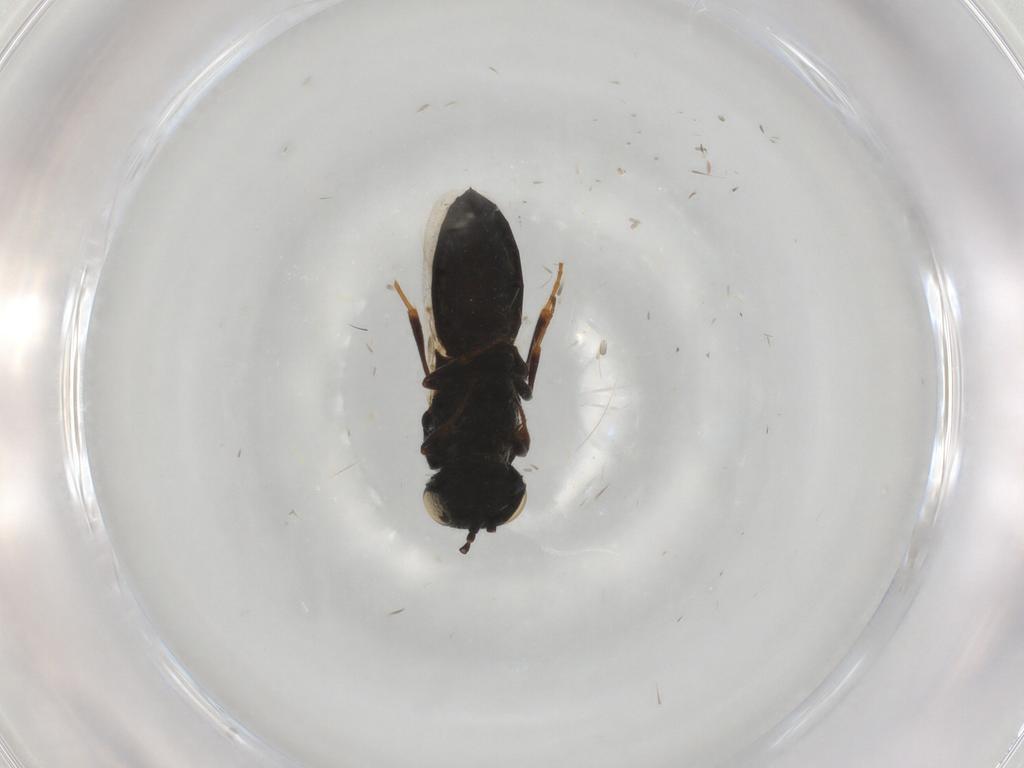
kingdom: Animalia
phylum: Arthropoda
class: Insecta
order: Hymenoptera
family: Scelionidae
